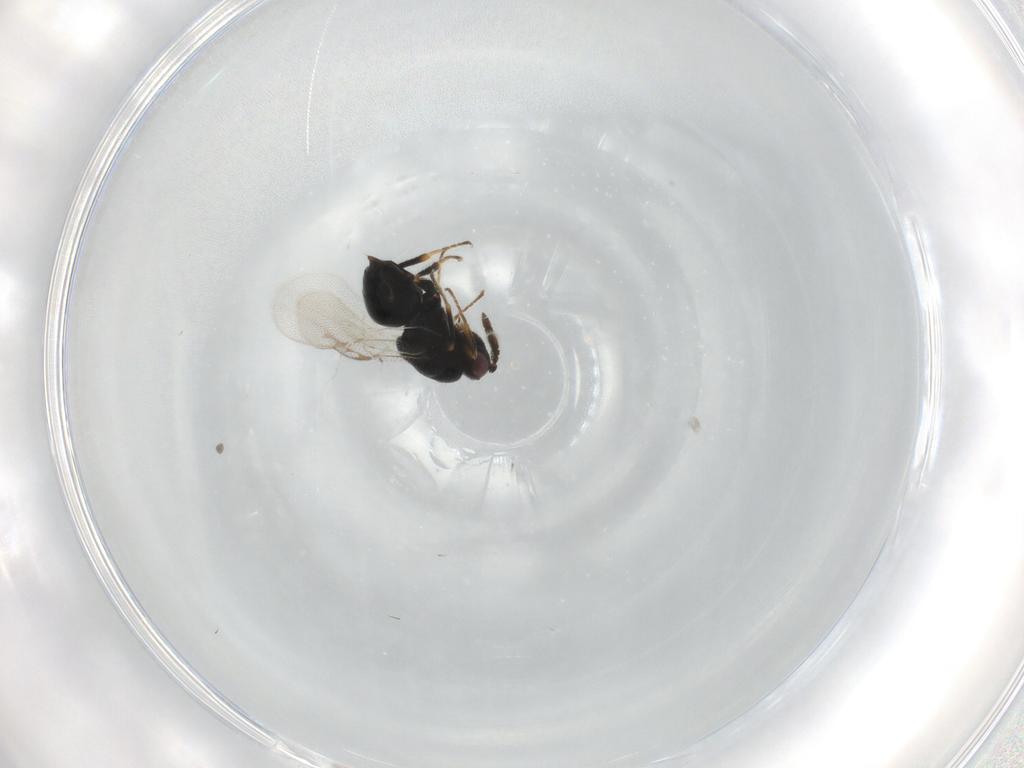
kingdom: Animalia
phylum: Arthropoda
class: Insecta
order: Hymenoptera
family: Eurytomidae
